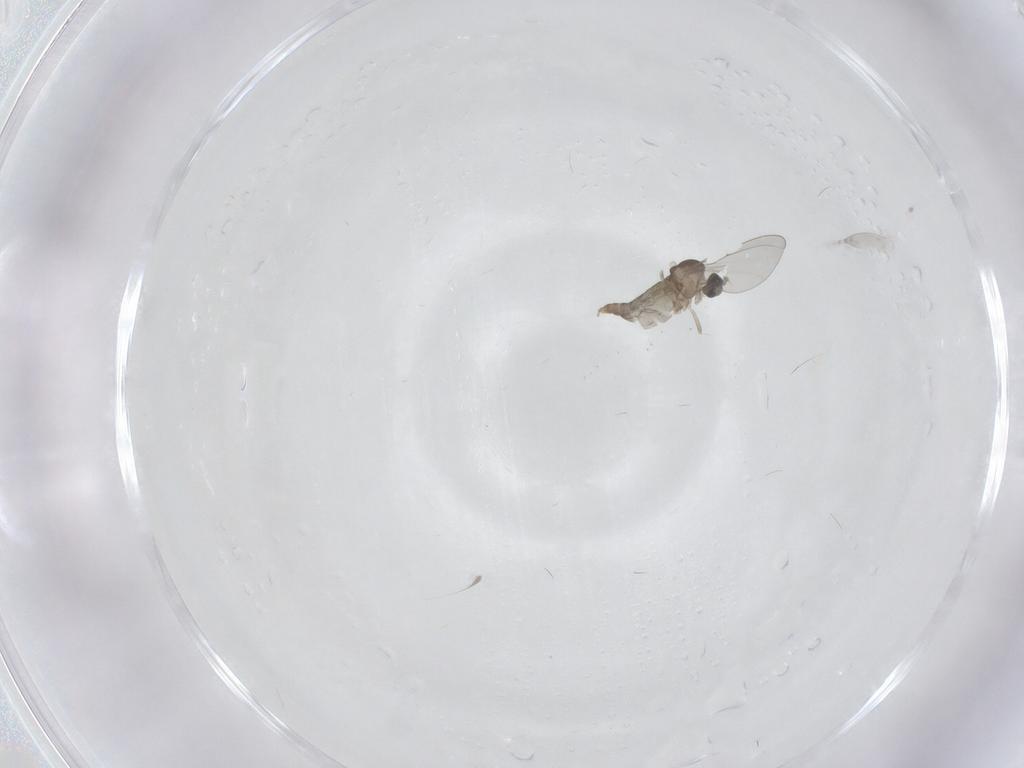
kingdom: Animalia
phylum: Arthropoda
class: Insecta
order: Diptera
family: Cecidomyiidae
